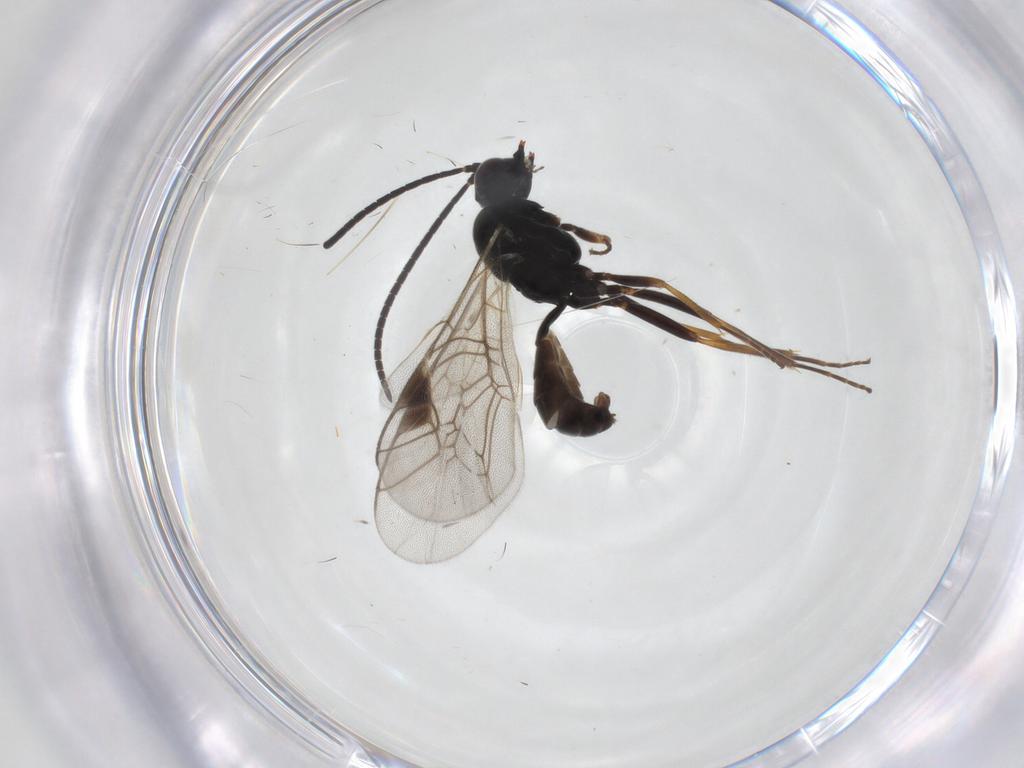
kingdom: Animalia
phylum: Arthropoda
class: Insecta
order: Hymenoptera
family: Ichneumonidae
